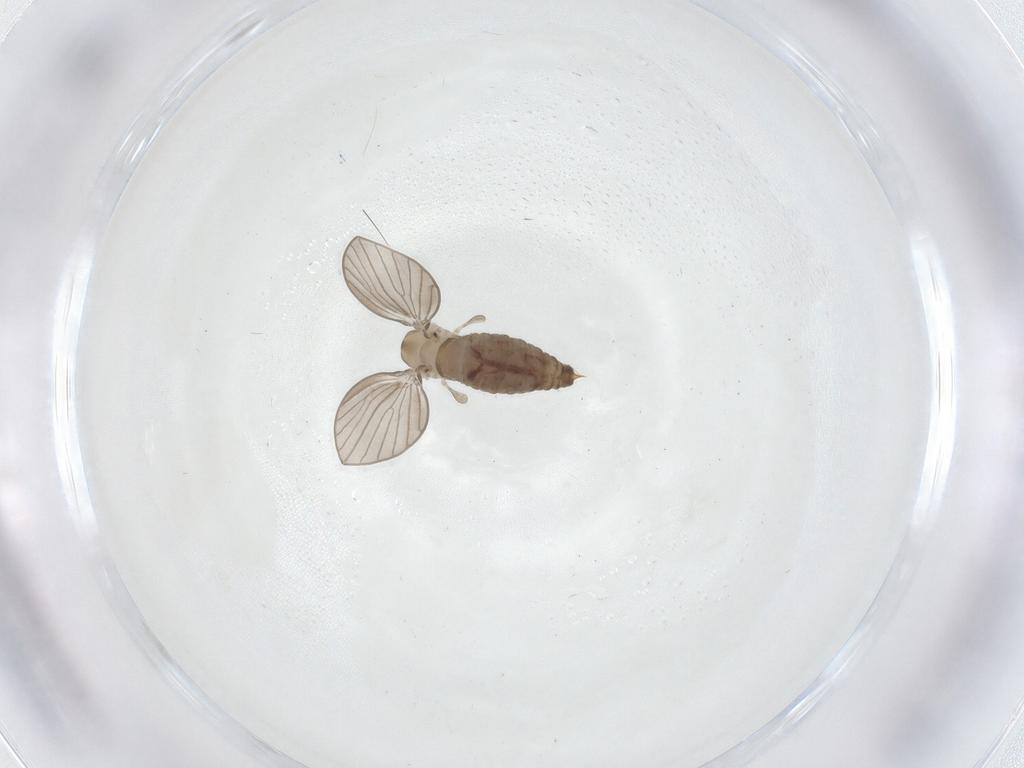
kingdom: Animalia
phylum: Arthropoda
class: Insecta
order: Diptera
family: Psychodidae
